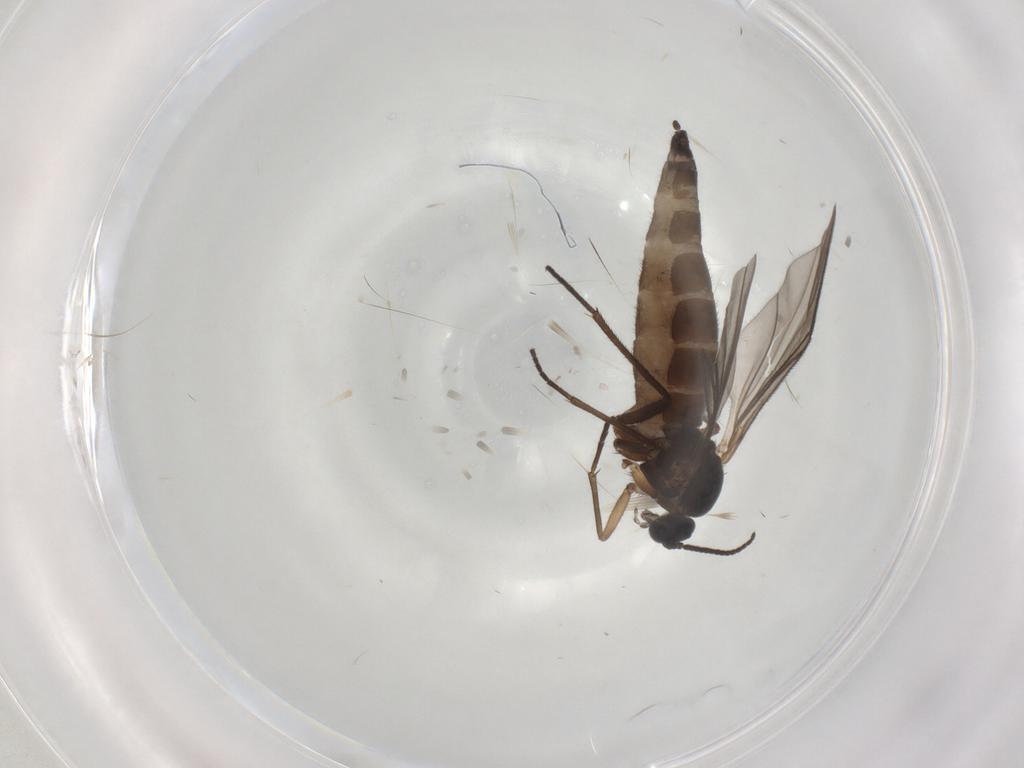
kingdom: Animalia
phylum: Arthropoda
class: Insecta
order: Diptera
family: Sciaridae
